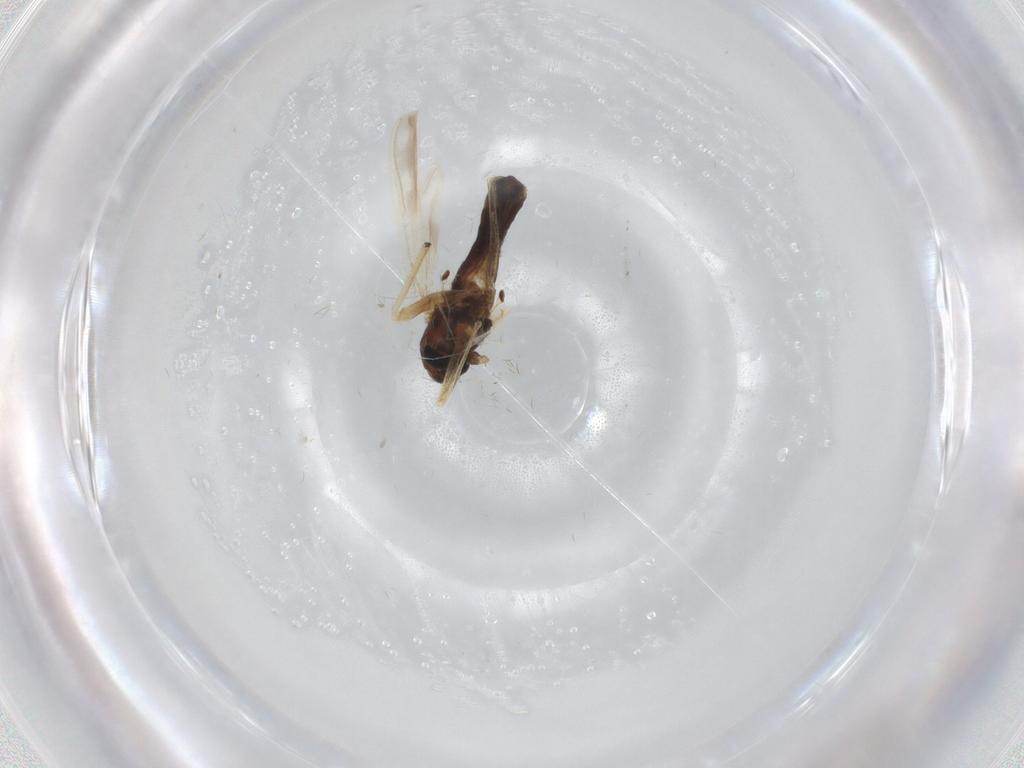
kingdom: Animalia
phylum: Arthropoda
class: Insecta
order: Diptera
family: Chironomidae
